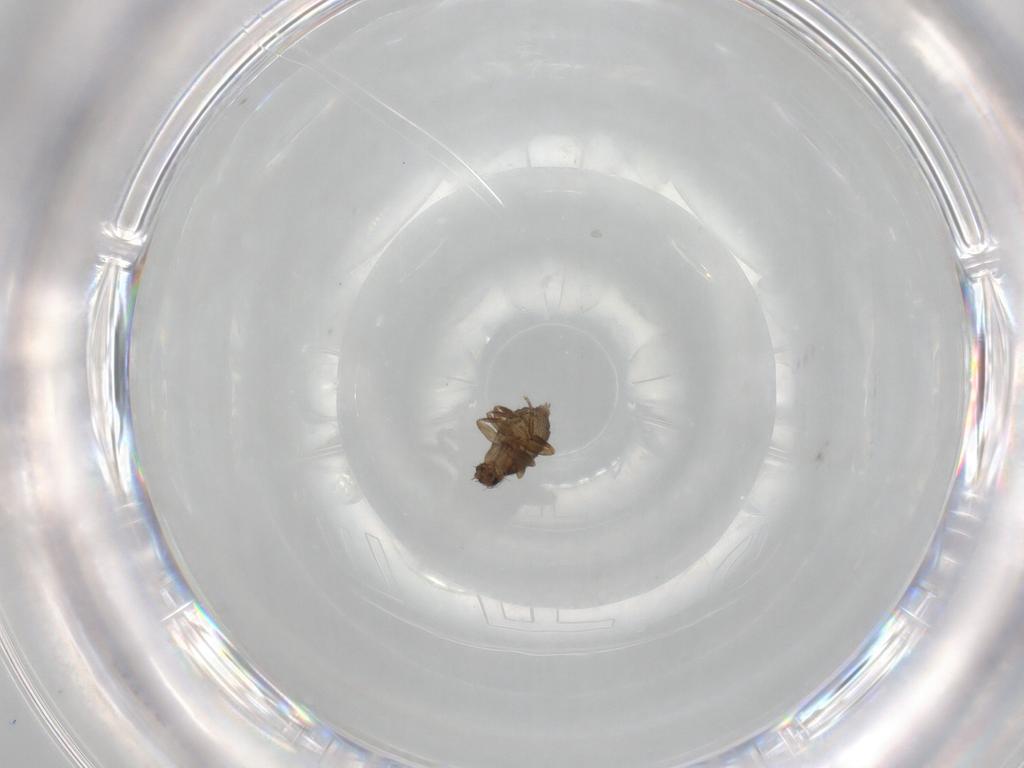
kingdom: Animalia
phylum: Arthropoda
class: Insecta
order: Diptera
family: Phoridae
